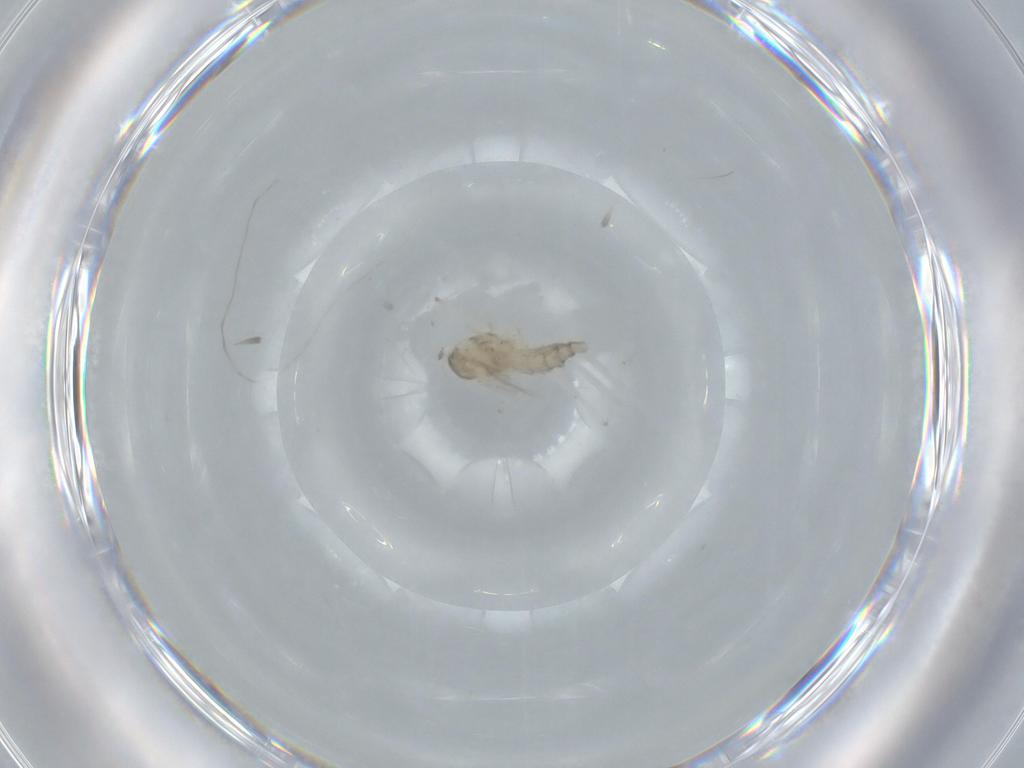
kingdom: Animalia
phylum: Arthropoda
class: Insecta
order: Diptera
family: Cecidomyiidae
